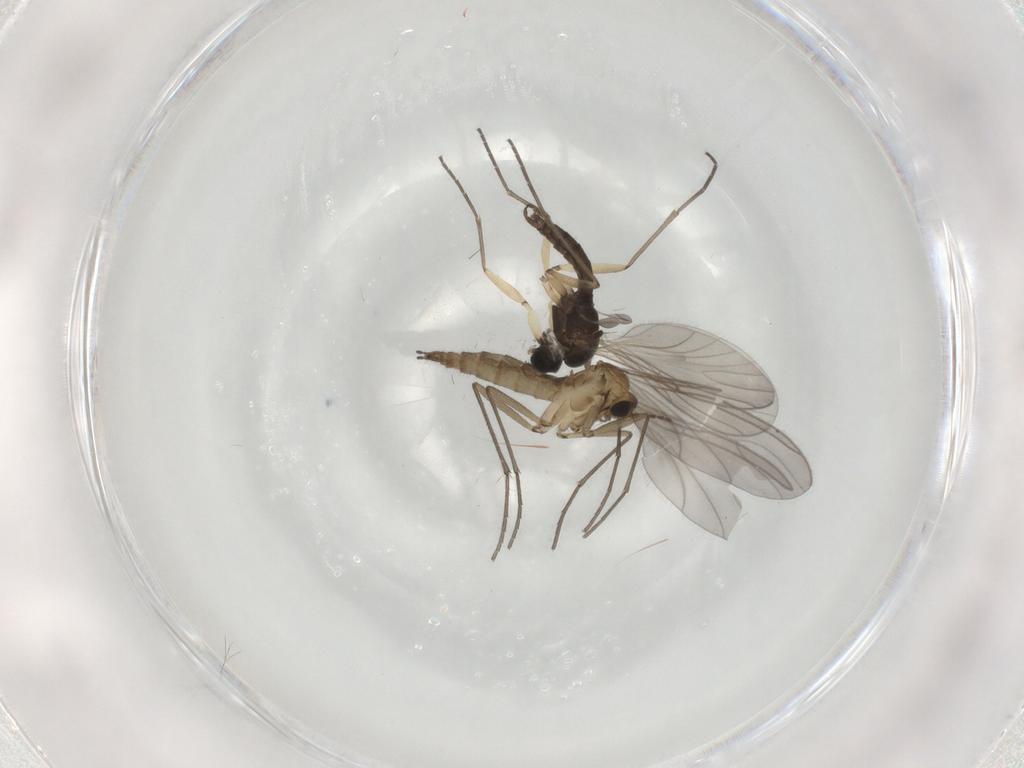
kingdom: Animalia
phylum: Arthropoda
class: Insecta
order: Diptera
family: Sciaridae
